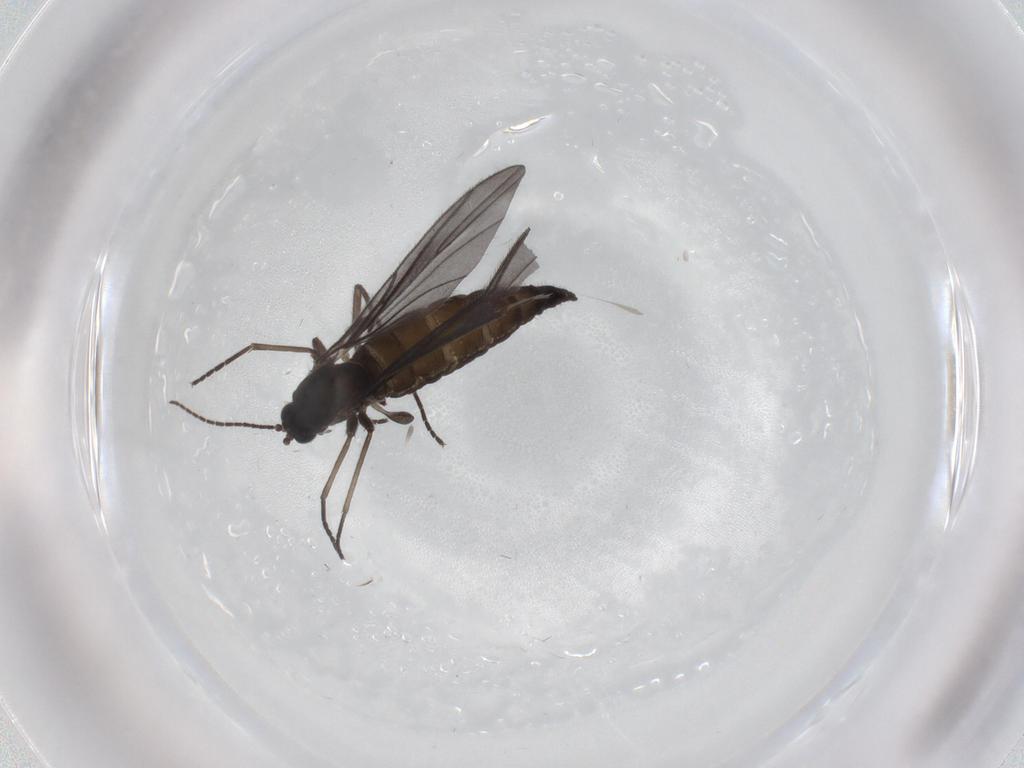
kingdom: Animalia
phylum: Arthropoda
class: Insecta
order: Diptera
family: Sciaridae
